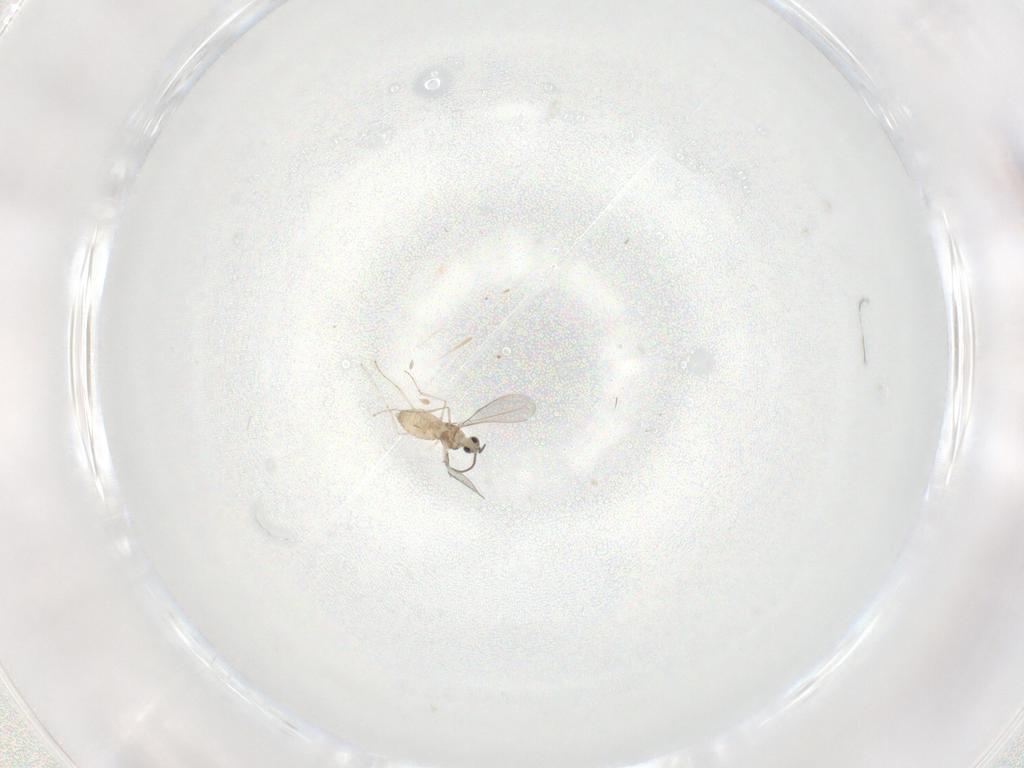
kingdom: Animalia
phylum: Arthropoda
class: Insecta
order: Diptera
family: Cecidomyiidae
